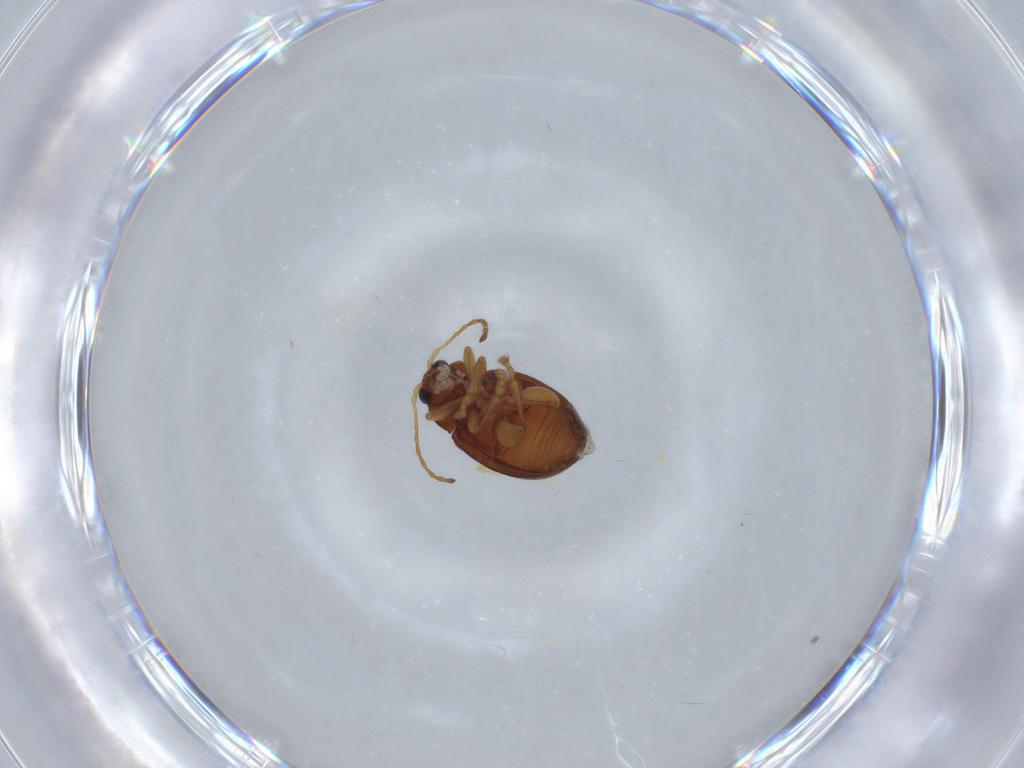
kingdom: Animalia
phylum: Arthropoda
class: Insecta
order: Coleoptera
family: Chrysomelidae
